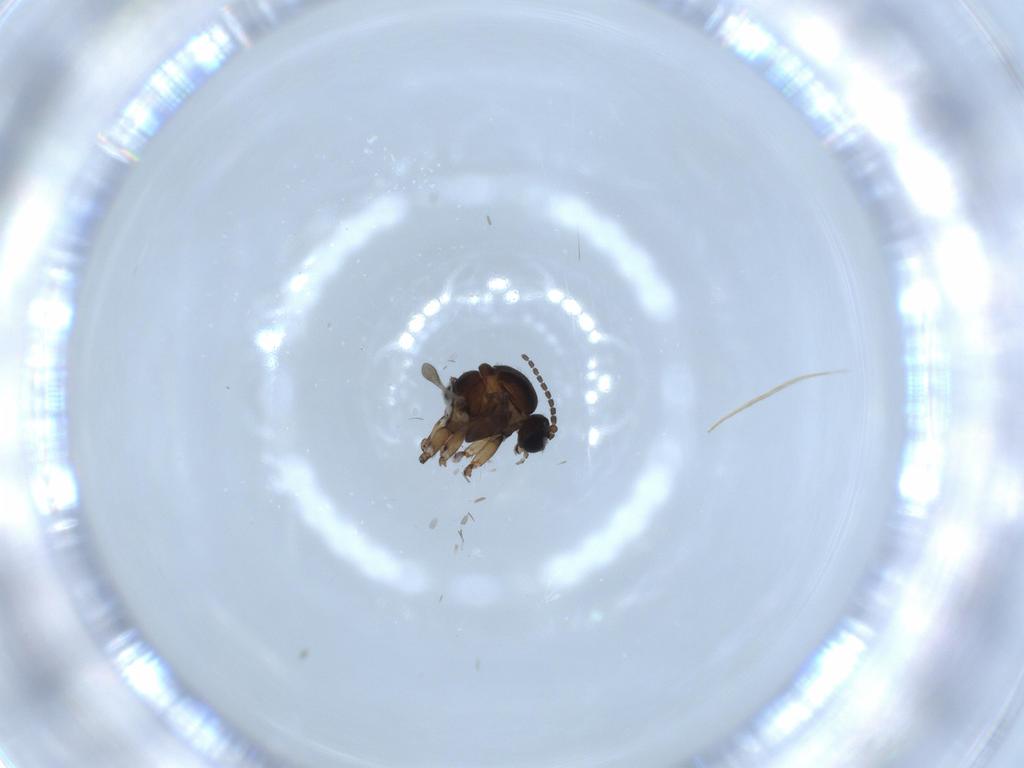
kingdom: Animalia
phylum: Arthropoda
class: Insecta
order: Diptera
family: Sciaridae
